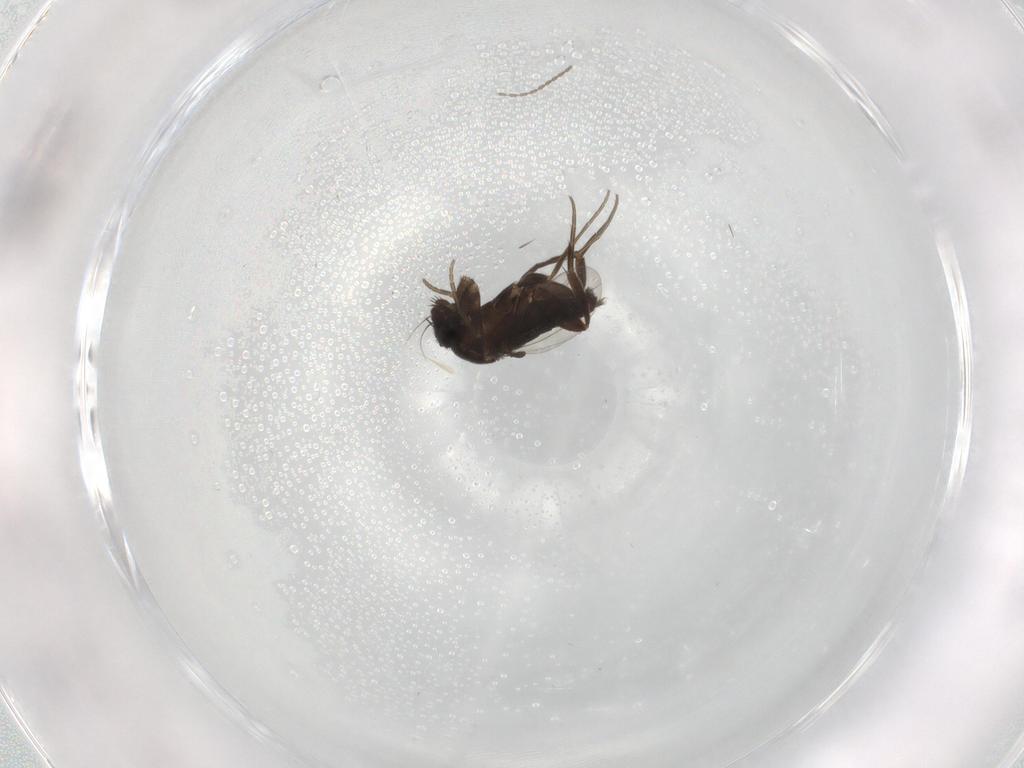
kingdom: Animalia
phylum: Arthropoda
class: Insecta
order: Diptera
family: Phoridae
